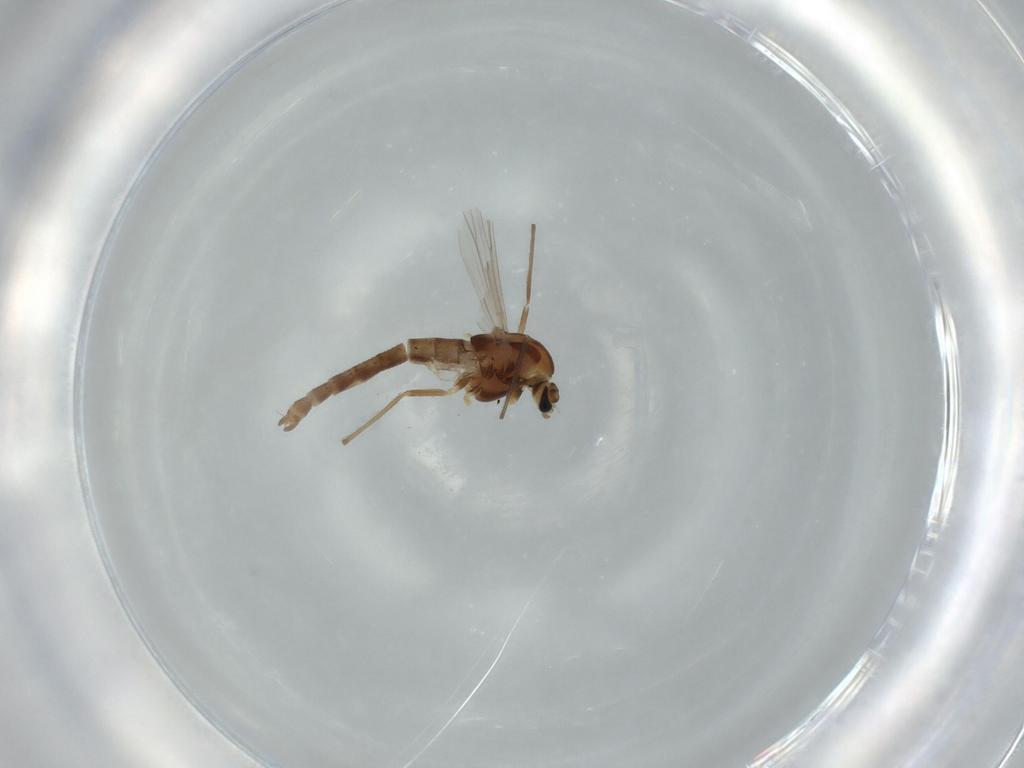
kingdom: Animalia
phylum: Arthropoda
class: Insecta
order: Diptera
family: Chironomidae
